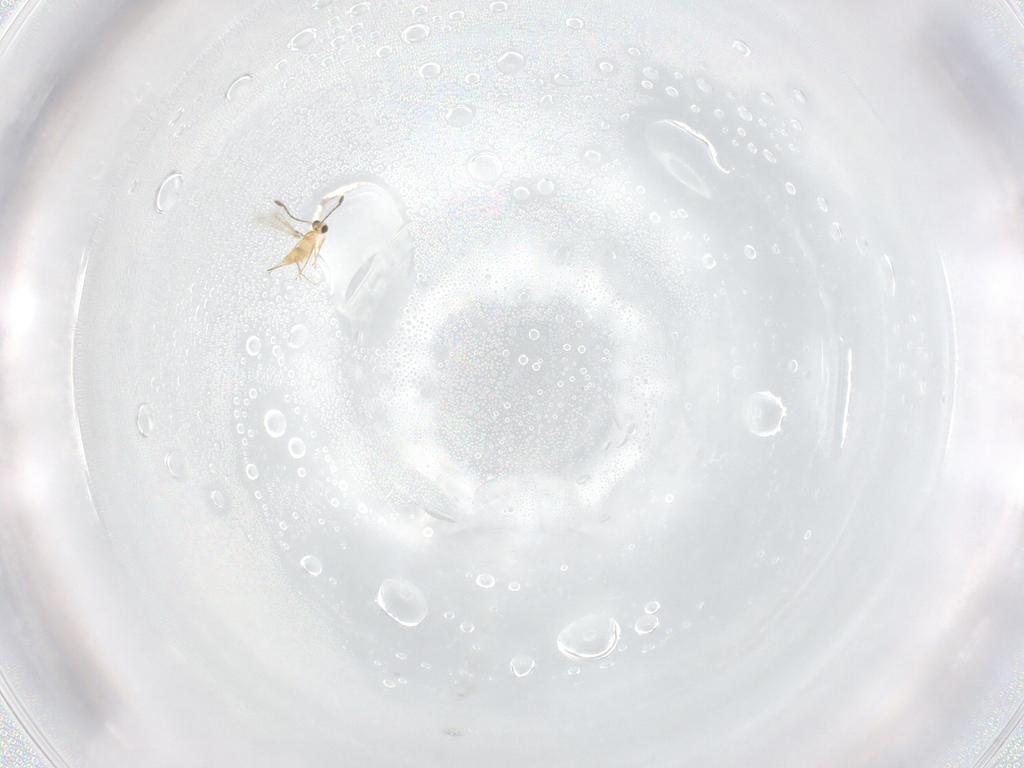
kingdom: Animalia
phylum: Arthropoda
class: Insecta
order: Hymenoptera
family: Mymaridae
